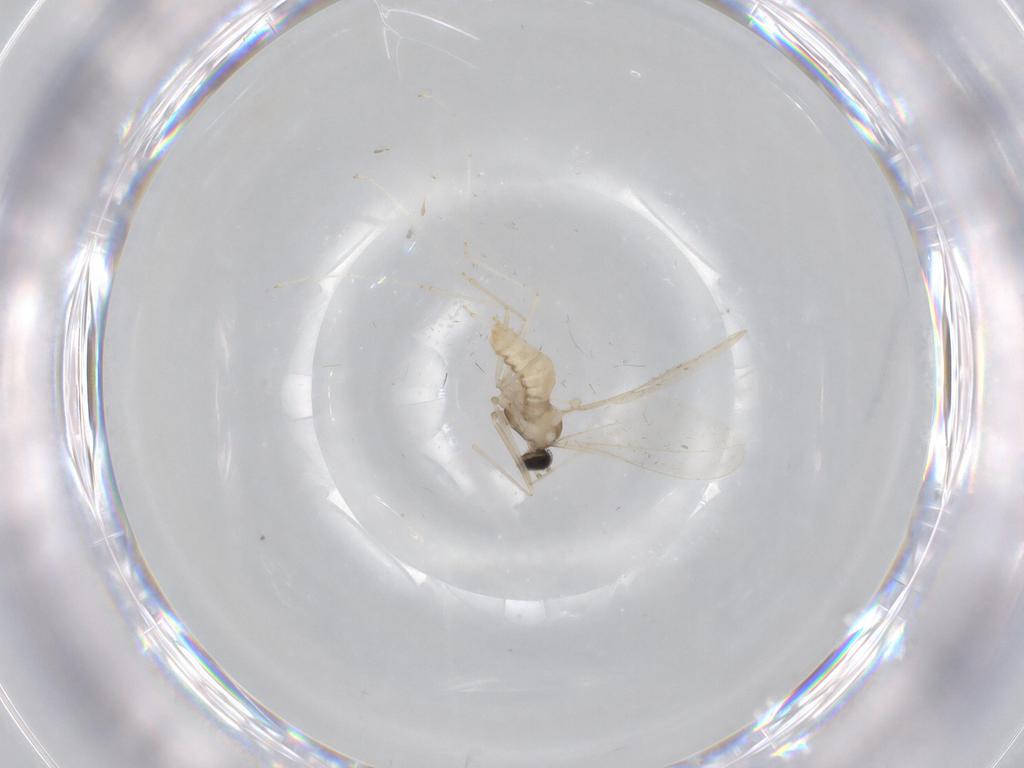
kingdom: Animalia
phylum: Arthropoda
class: Insecta
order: Diptera
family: Cecidomyiidae
